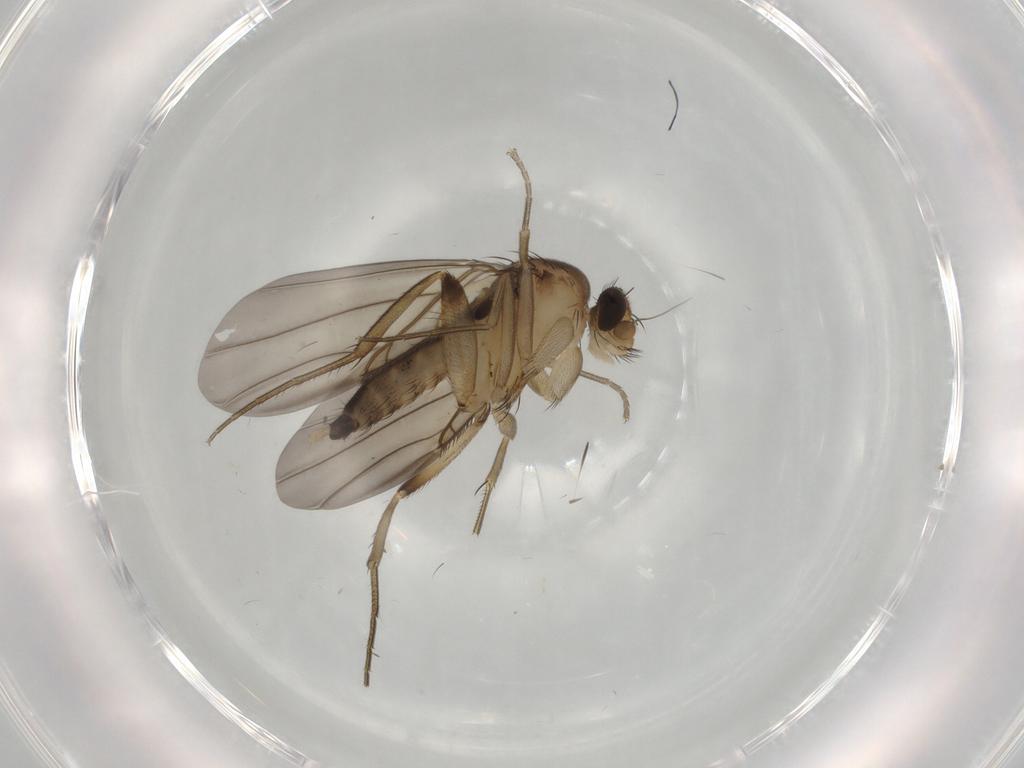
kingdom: Animalia
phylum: Arthropoda
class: Insecta
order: Diptera
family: Phoridae
